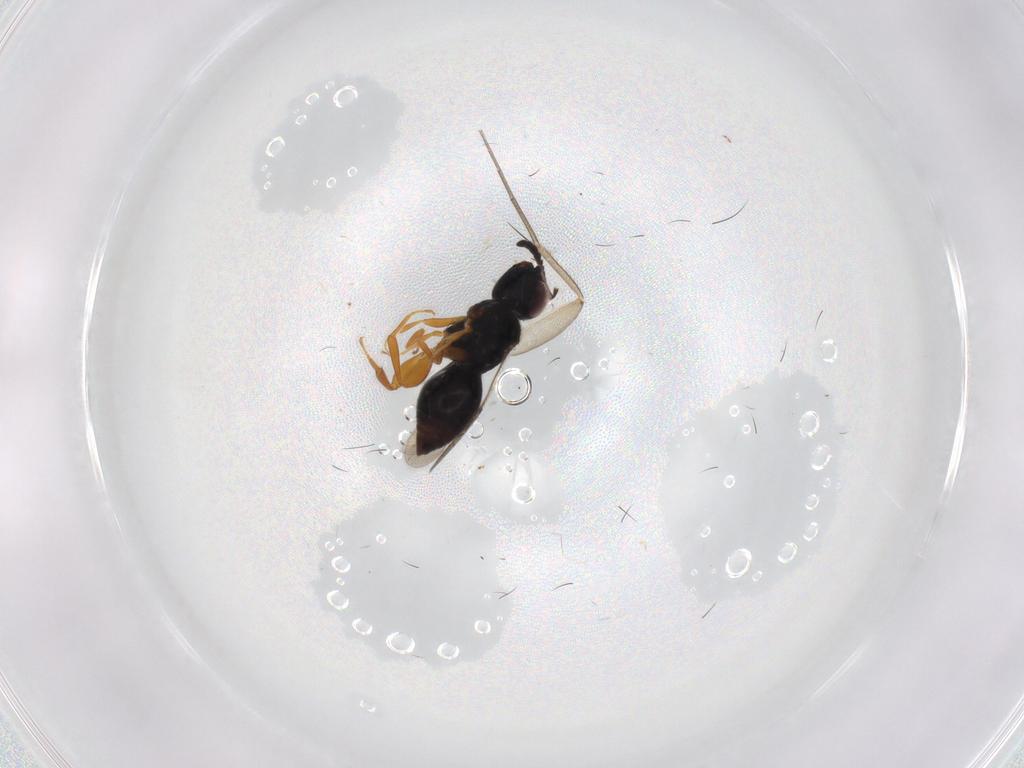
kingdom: Animalia
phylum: Arthropoda
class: Insecta
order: Hymenoptera
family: Ceraphronidae
